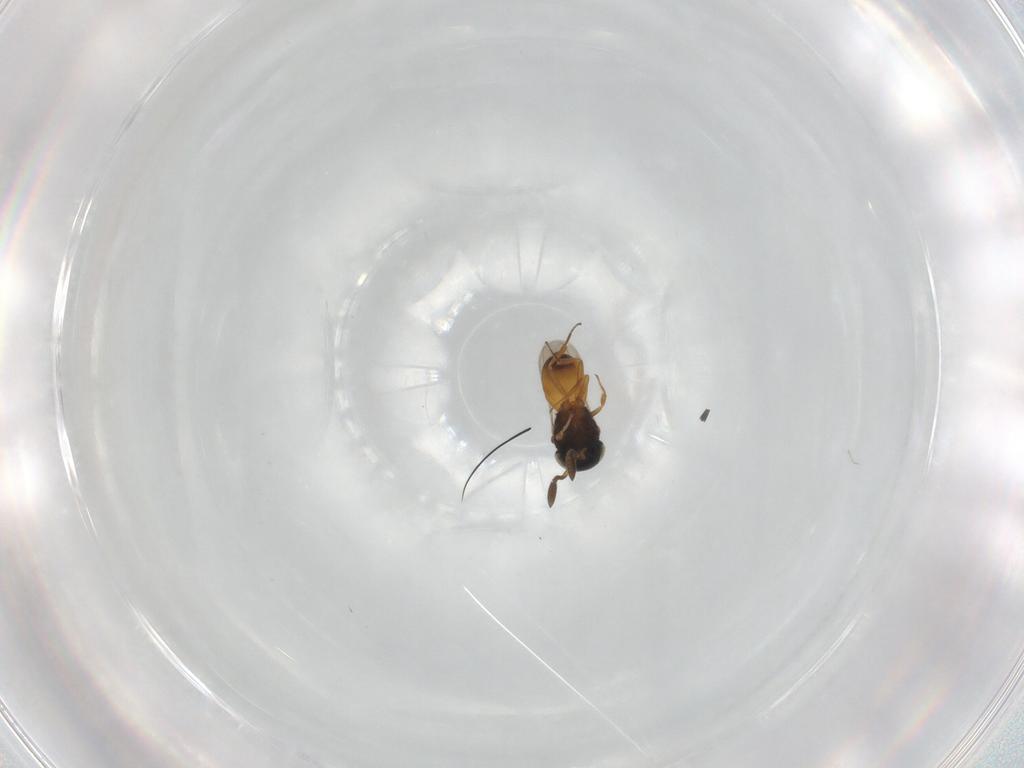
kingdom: Animalia
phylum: Arthropoda
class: Insecta
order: Hymenoptera
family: Scelionidae
